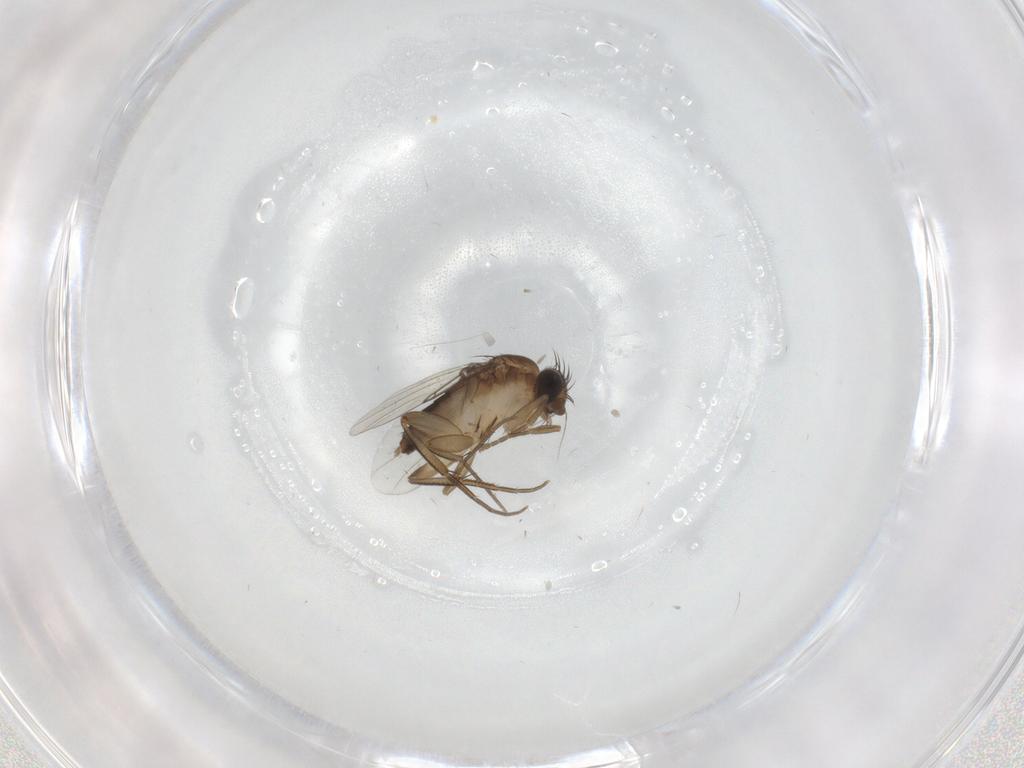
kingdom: Animalia
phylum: Arthropoda
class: Insecta
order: Diptera
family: Phoridae
